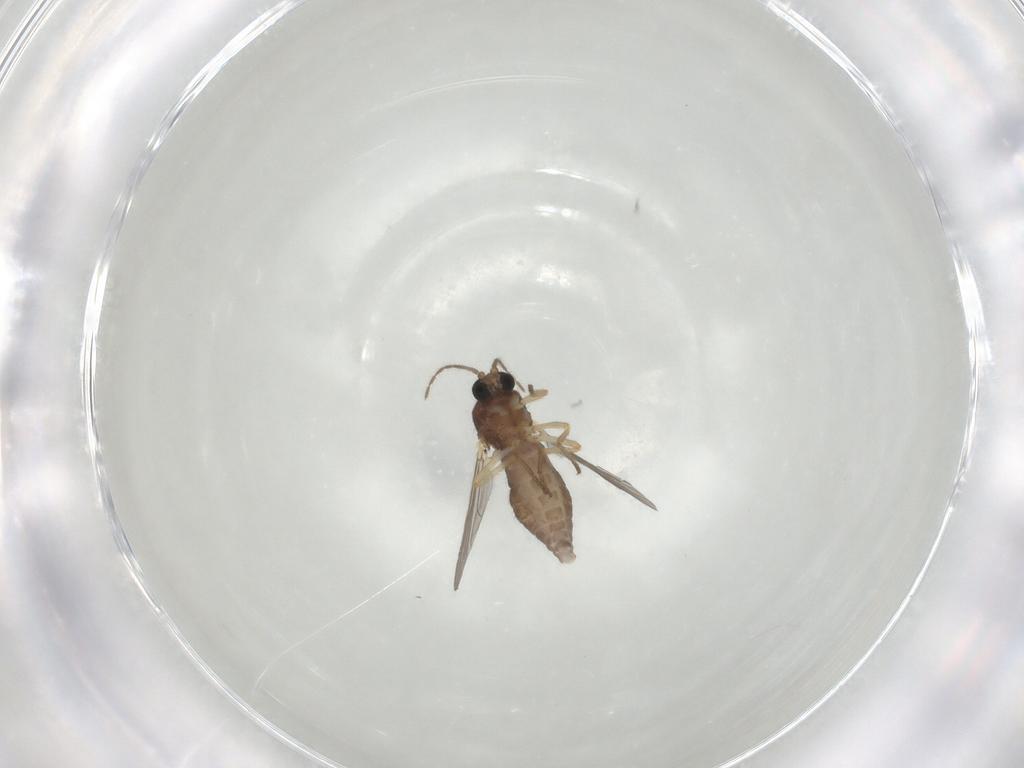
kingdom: Animalia
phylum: Arthropoda
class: Insecta
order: Diptera
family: Ceratopogonidae
